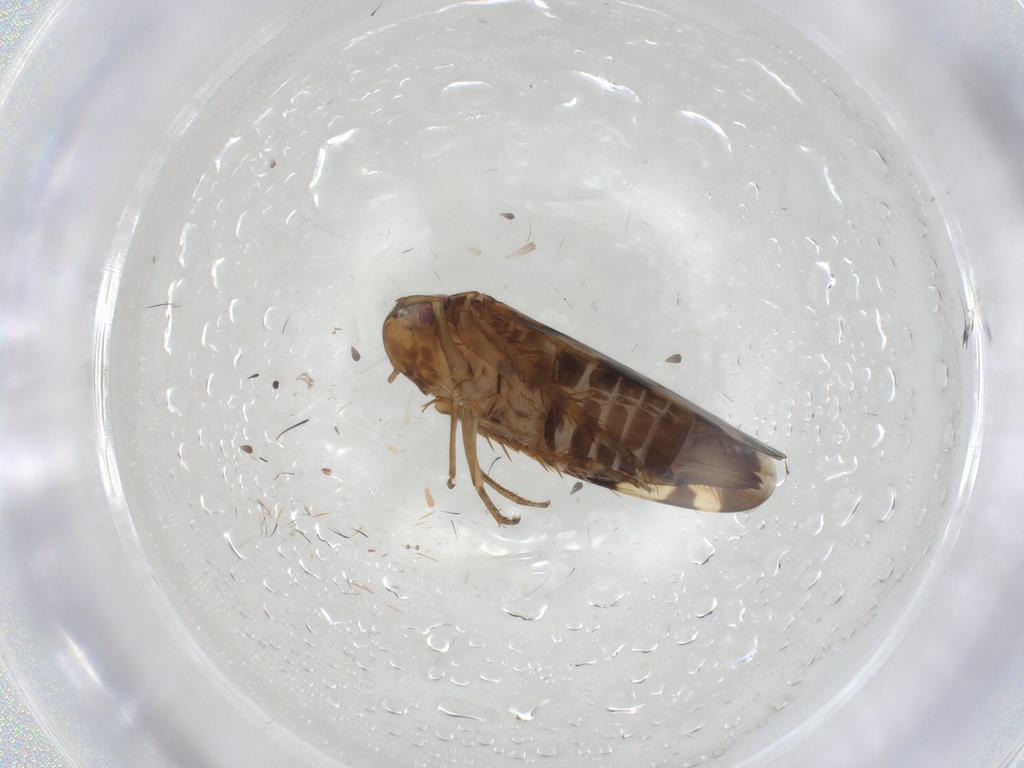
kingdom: Animalia
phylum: Arthropoda
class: Insecta
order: Hemiptera
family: Cicadellidae
